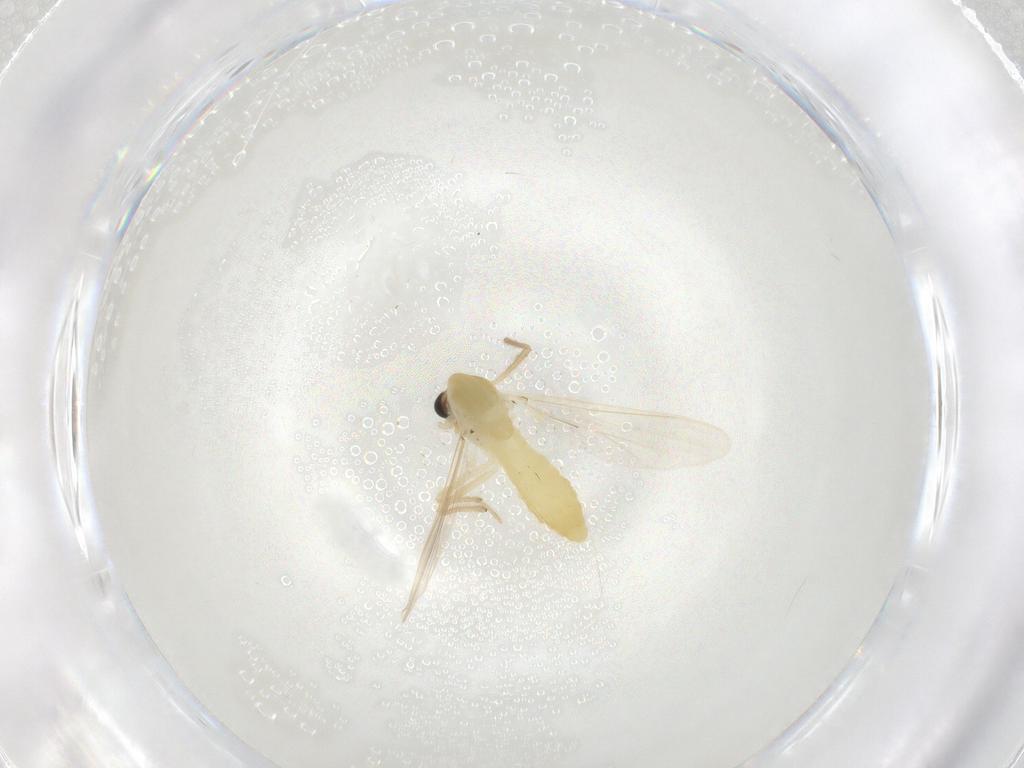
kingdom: Animalia
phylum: Arthropoda
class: Insecta
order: Diptera
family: Chironomidae
